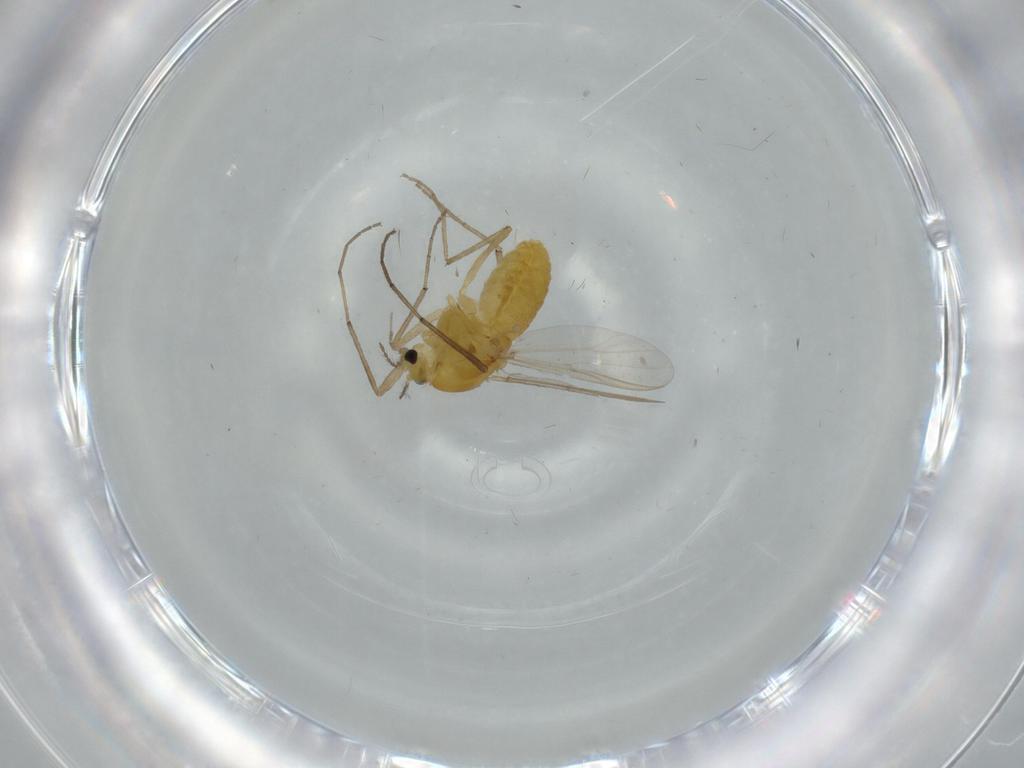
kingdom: Animalia
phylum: Arthropoda
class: Insecta
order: Diptera
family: Chironomidae
